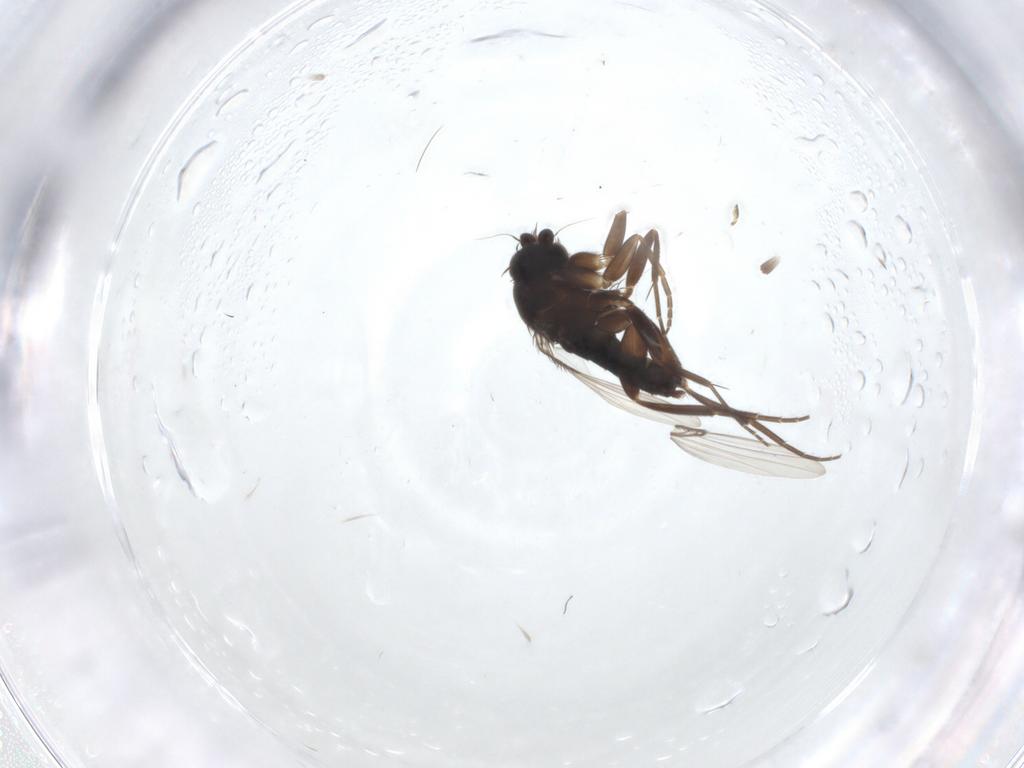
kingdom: Animalia
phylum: Arthropoda
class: Insecta
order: Diptera
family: Phoridae
